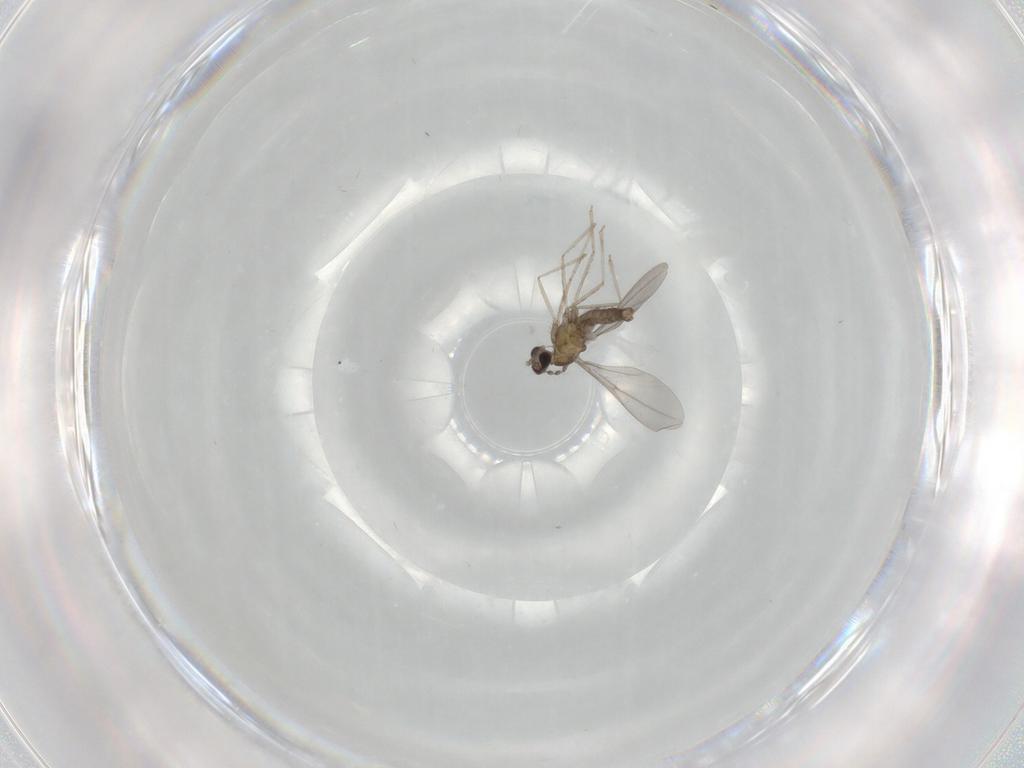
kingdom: Animalia
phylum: Arthropoda
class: Insecta
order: Diptera
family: Cecidomyiidae
